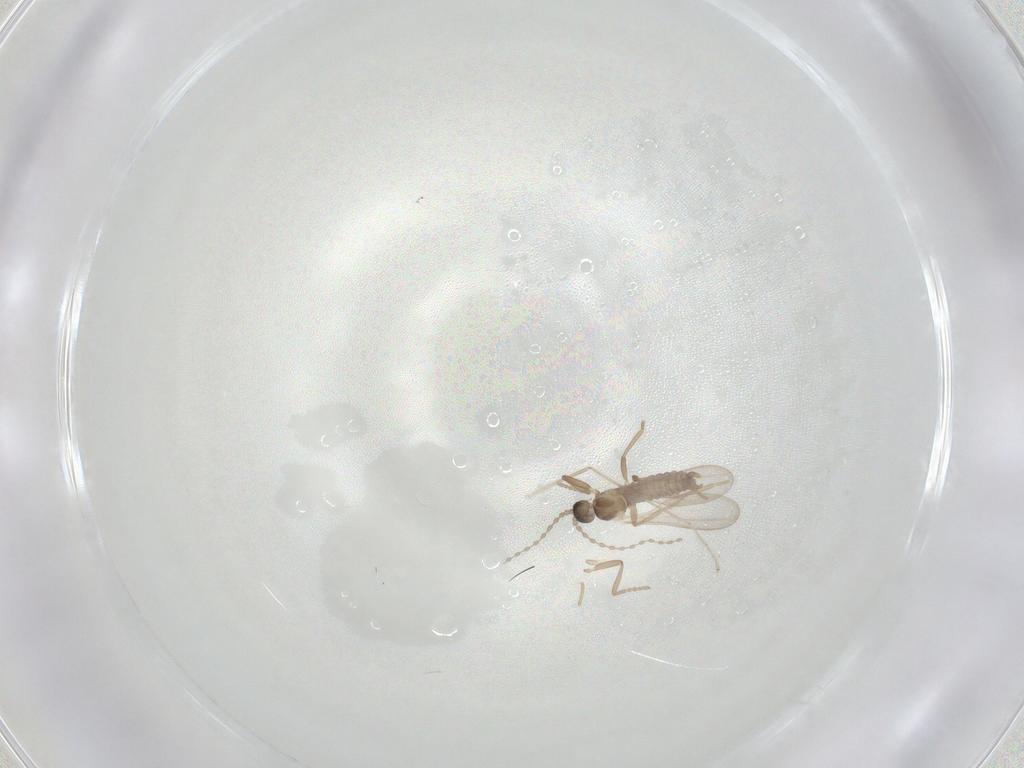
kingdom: Animalia
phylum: Arthropoda
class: Insecta
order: Diptera
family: Cecidomyiidae
